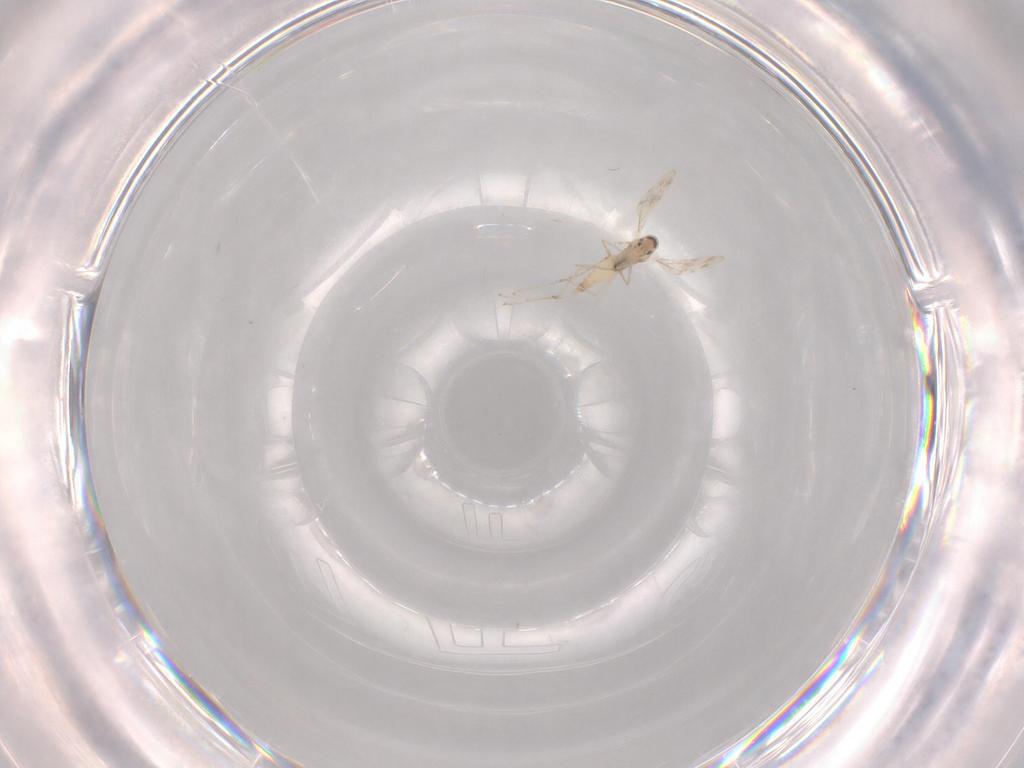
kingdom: Animalia
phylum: Arthropoda
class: Insecta
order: Diptera
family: Cecidomyiidae
